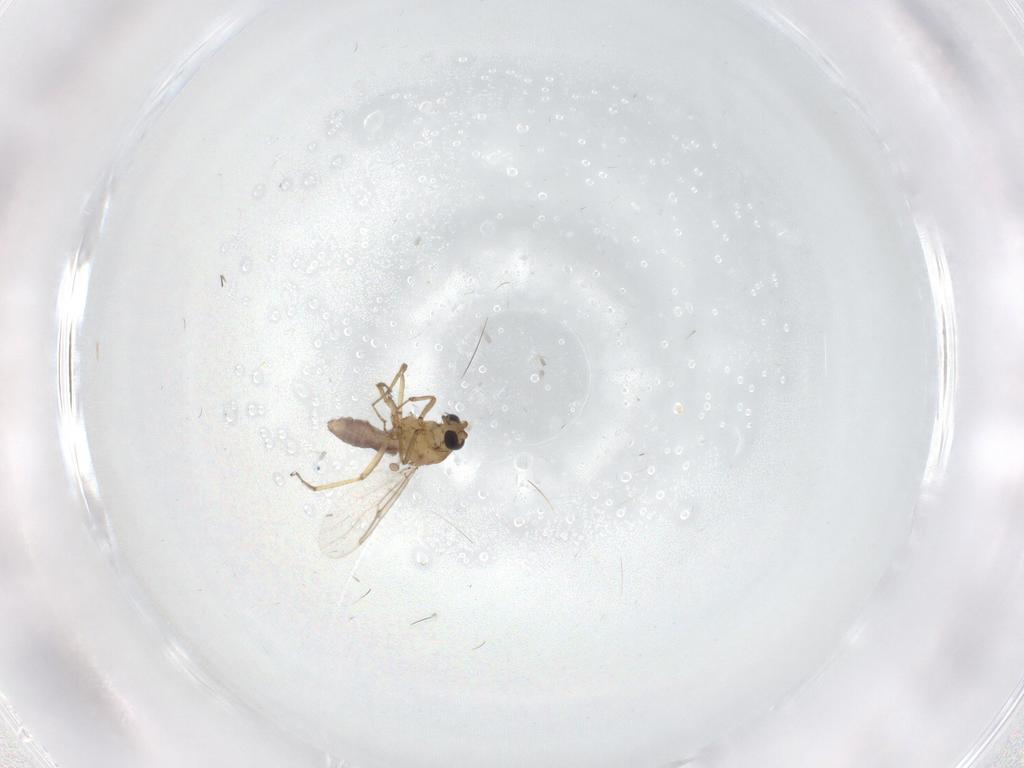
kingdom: Animalia
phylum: Arthropoda
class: Insecta
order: Diptera
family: Ceratopogonidae
